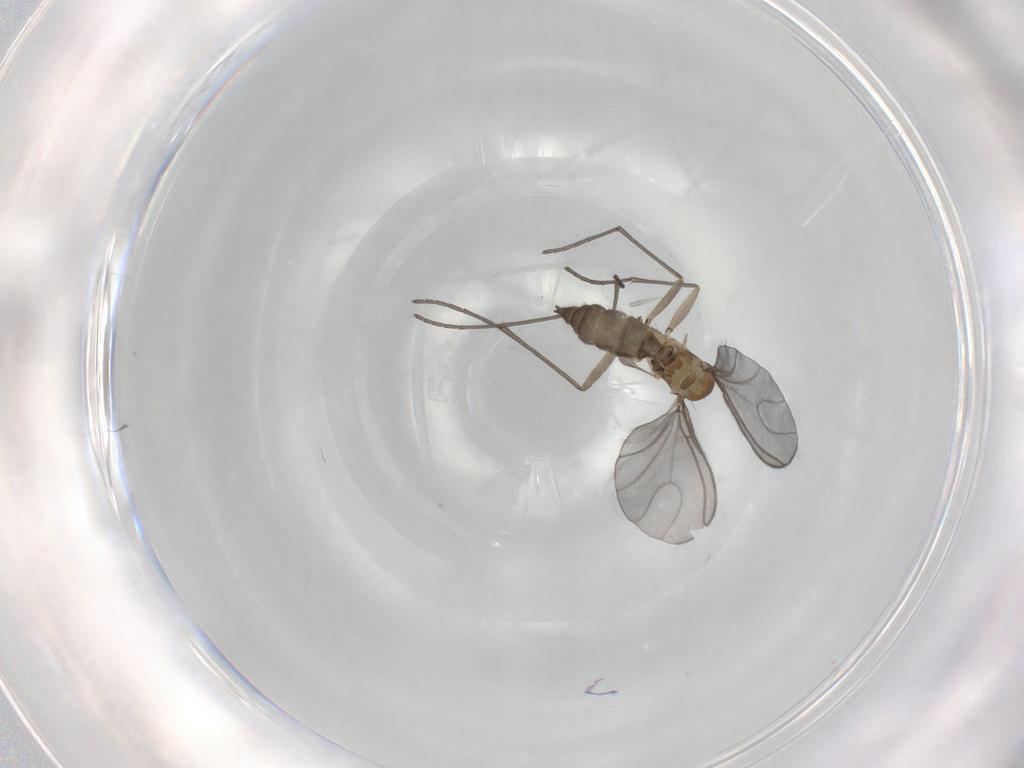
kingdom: Animalia
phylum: Arthropoda
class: Insecta
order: Diptera
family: Sciaridae
